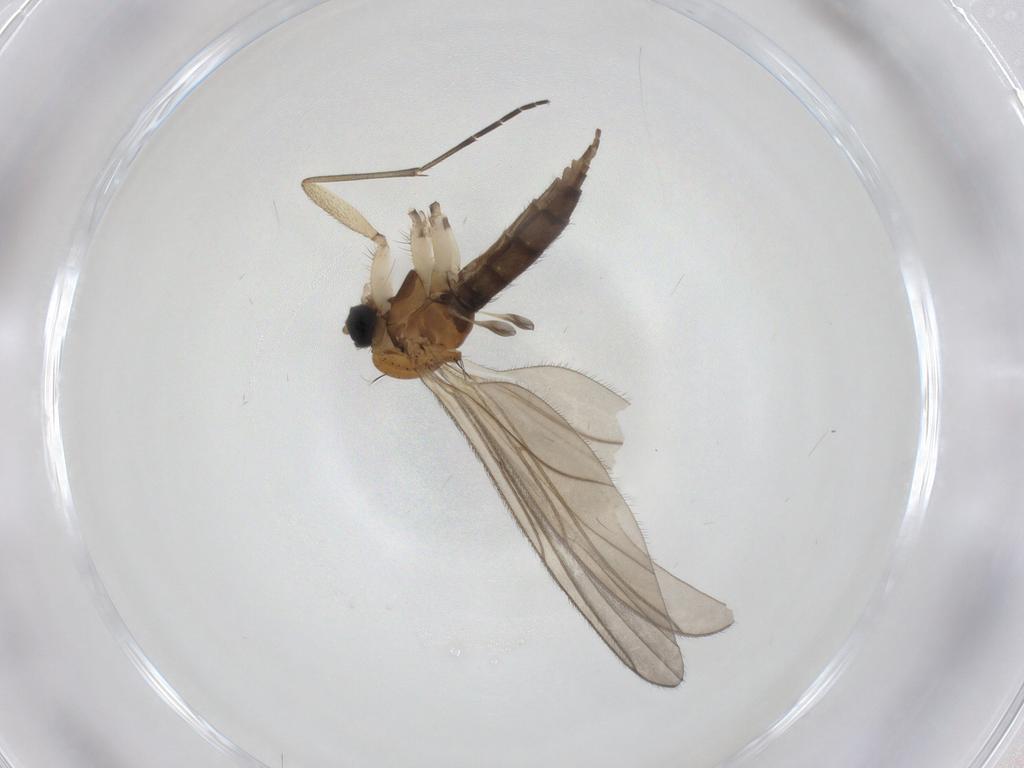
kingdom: Animalia
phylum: Arthropoda
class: Insecta
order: Diptera
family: Sciaridae
